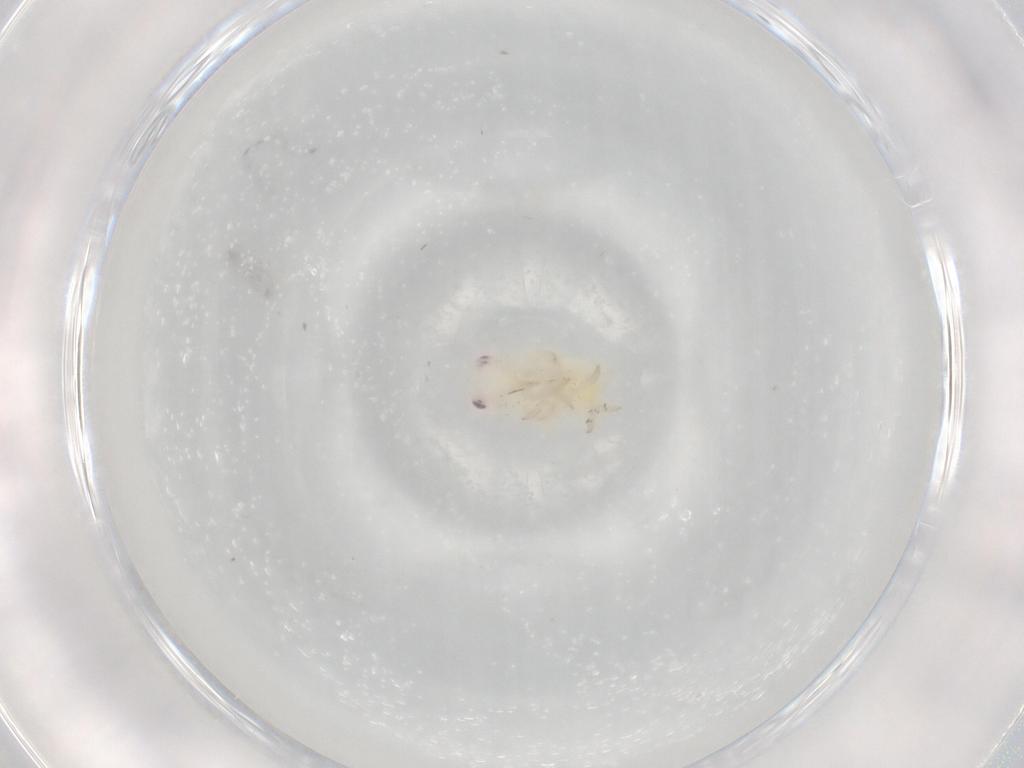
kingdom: Animalia
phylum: Arthropoda
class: Insecta
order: Hemiptera
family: Flatidae
